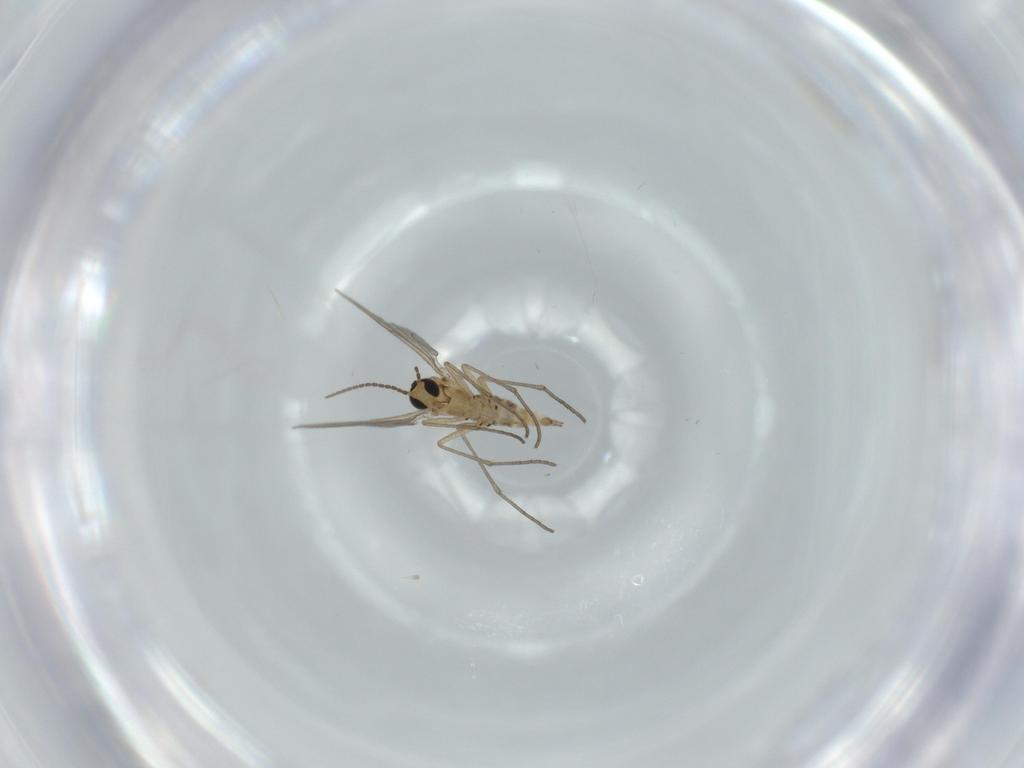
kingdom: Animalia
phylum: Arthropoda
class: Insecta
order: Diptera
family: Sciaridae
